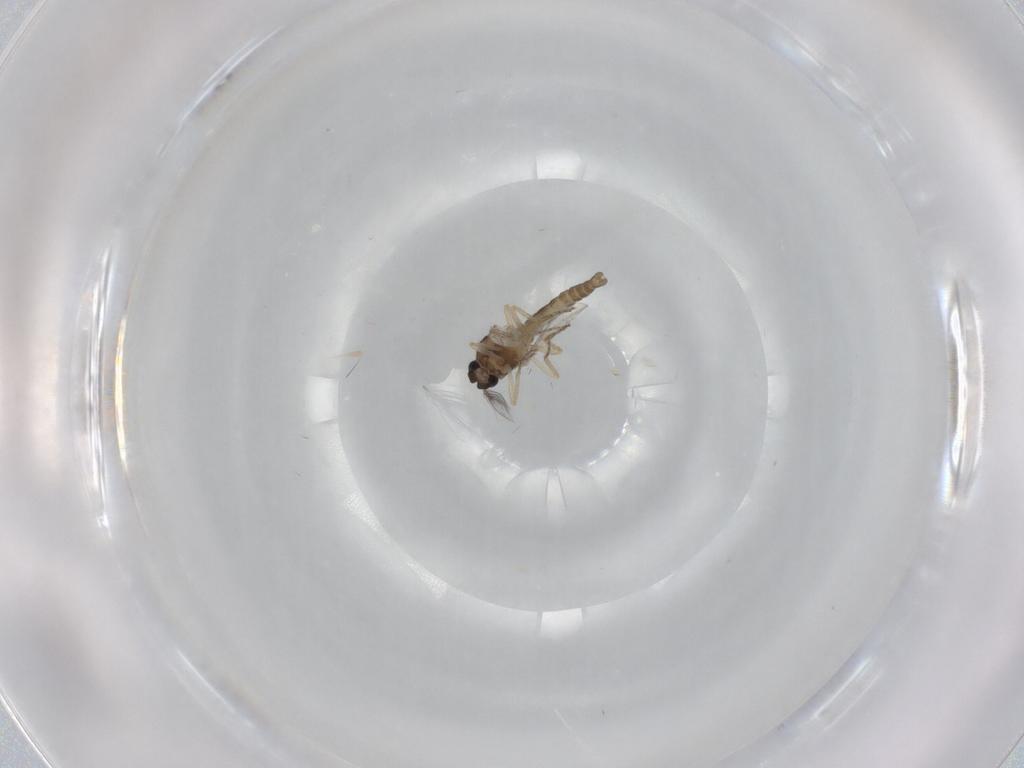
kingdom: Animalia
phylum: Arthropoda
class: Insecta
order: Diptera
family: Ceratopogonidae
